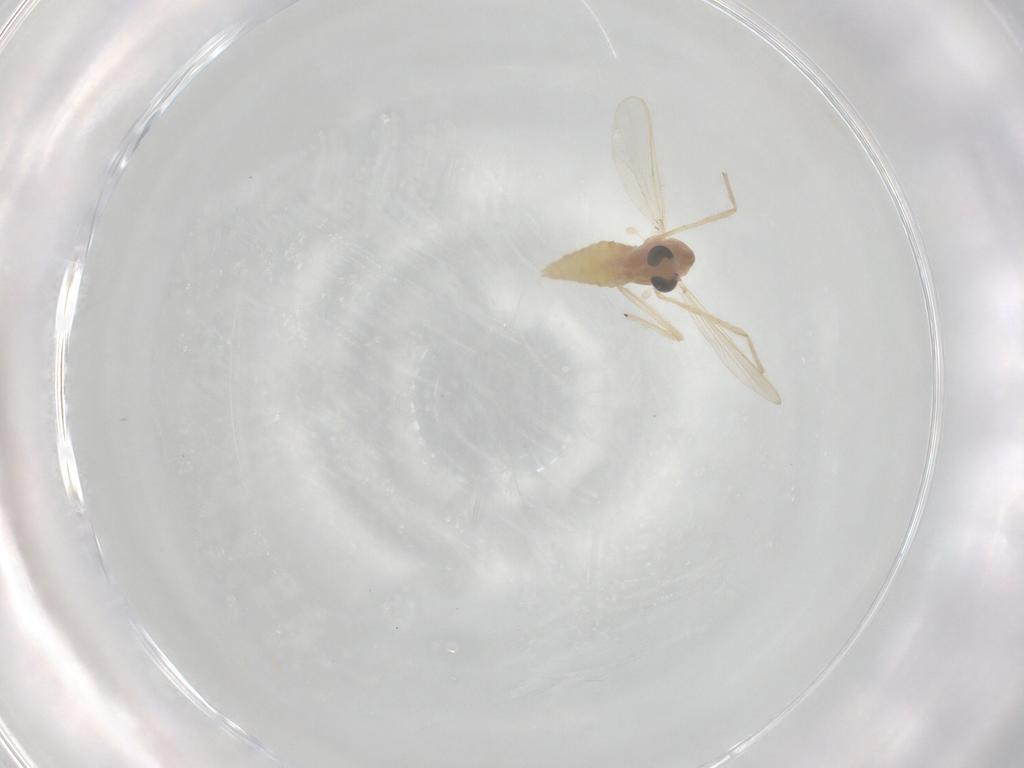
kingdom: Animalia
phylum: Arthropoda
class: Insecta
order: Diptera
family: Chironomidae
